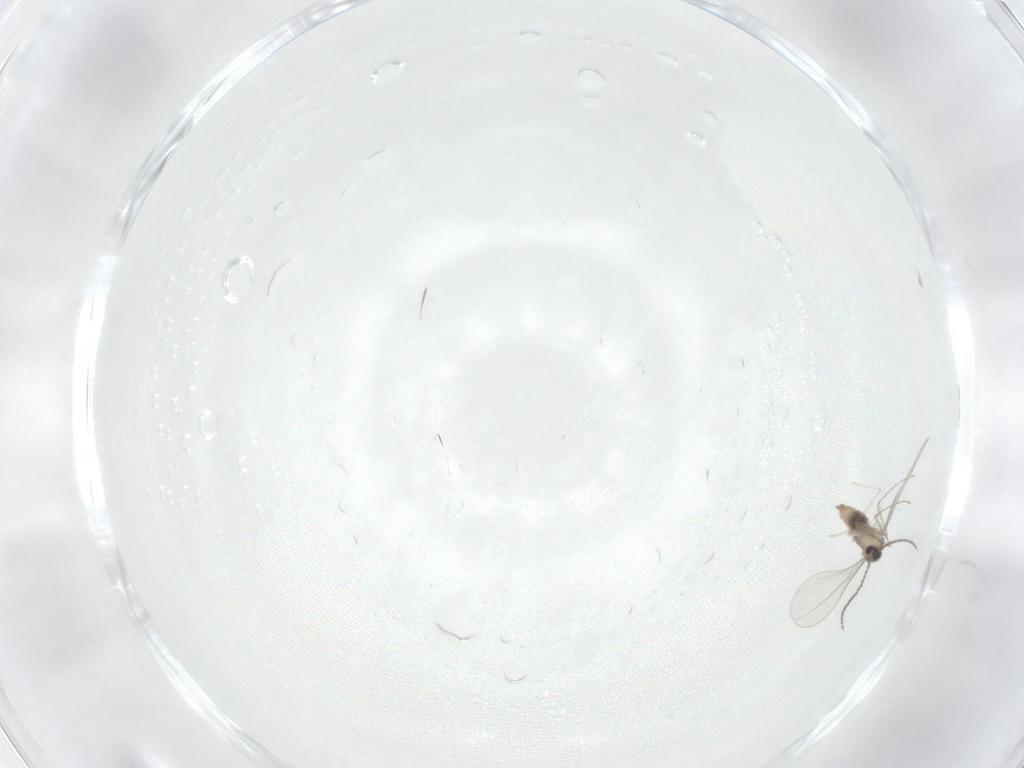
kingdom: Animalia
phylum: Arthropoda
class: Insecta
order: Diptera
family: Cecidomyiidae
